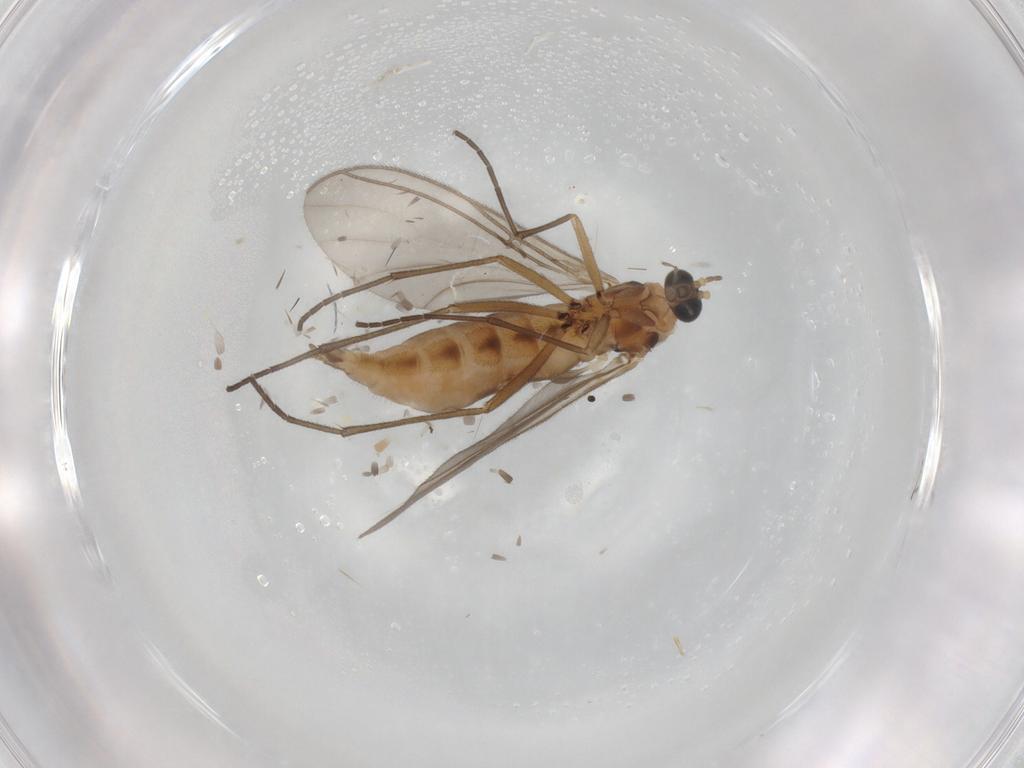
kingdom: Animalia
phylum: Arthropoda
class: Insecta
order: Diptera
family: Sciaridae
